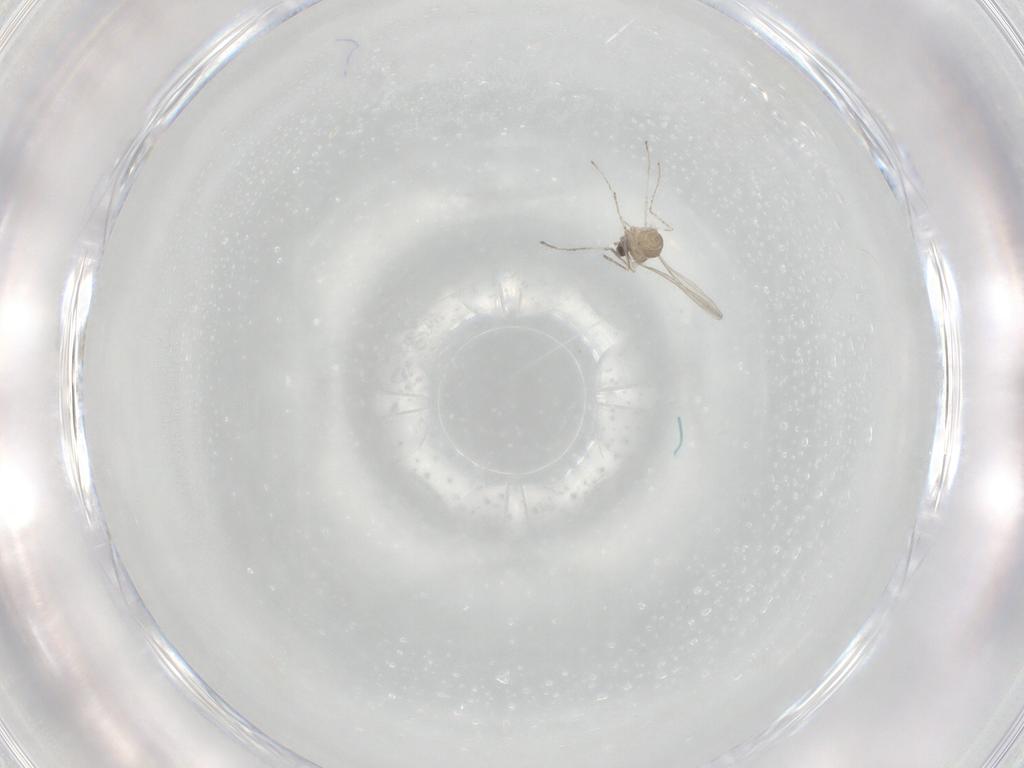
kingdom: Animalia
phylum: Arthropoda
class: Insecta
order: Diptera
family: Cecidomyiidae
